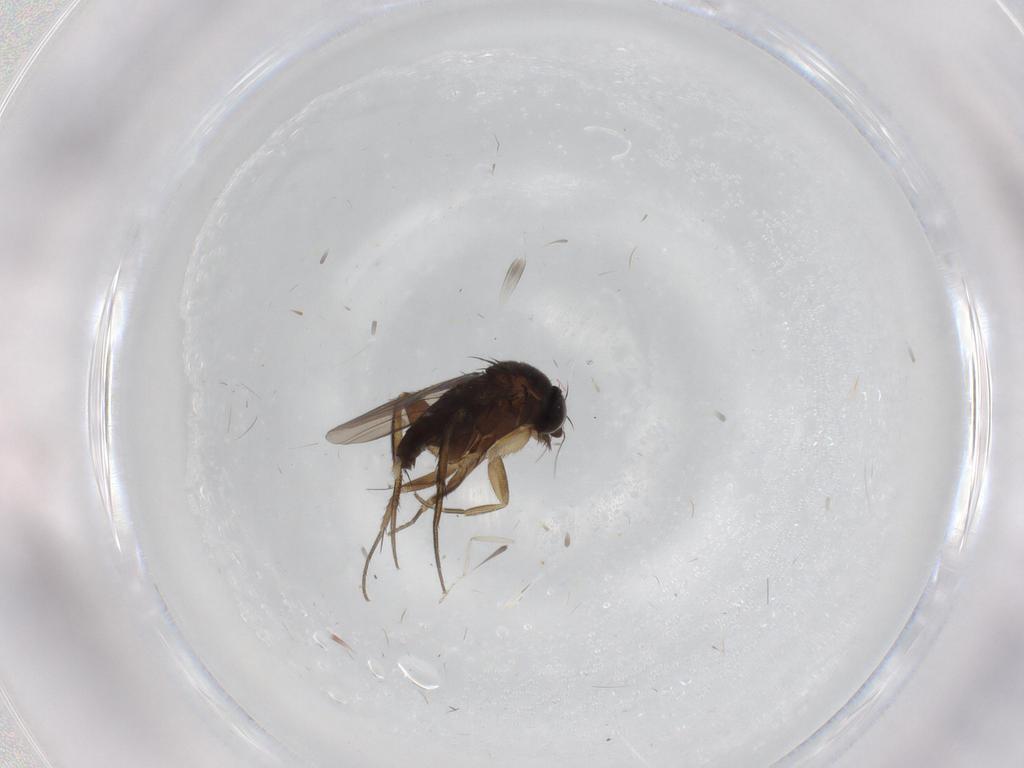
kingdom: Animalia
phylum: Arthropoda
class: Insecta
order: Diptera
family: Phoridae
